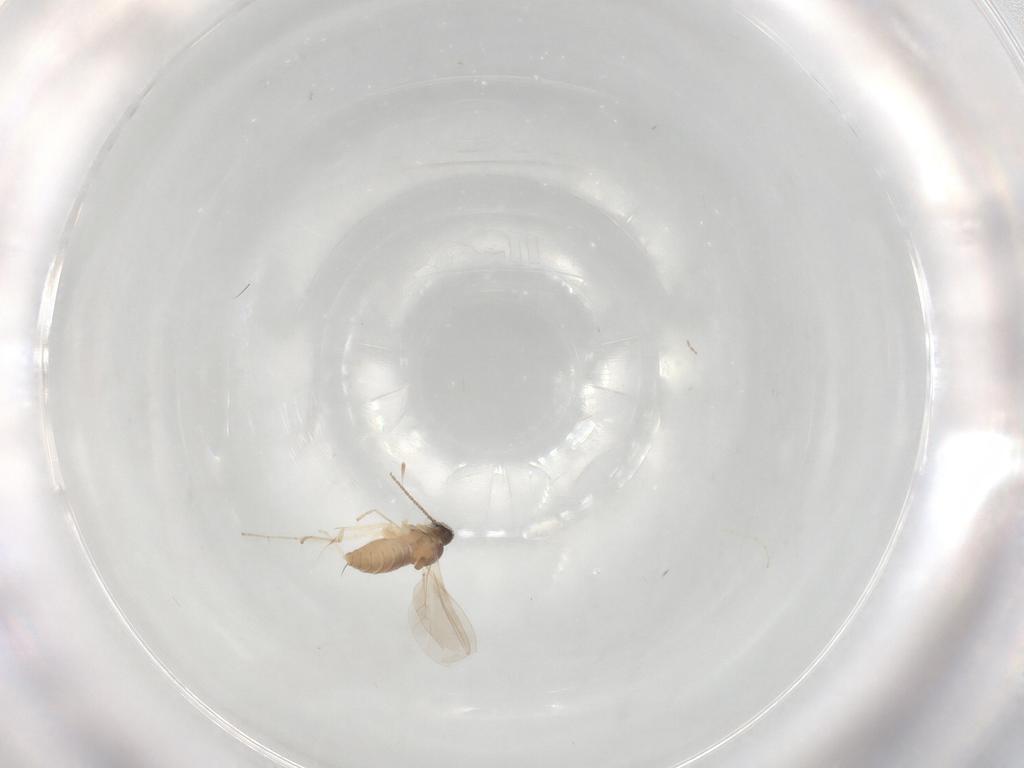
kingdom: Animalia
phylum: Arthropoda
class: Insecta
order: Diptera
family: Cecidomyiidae
